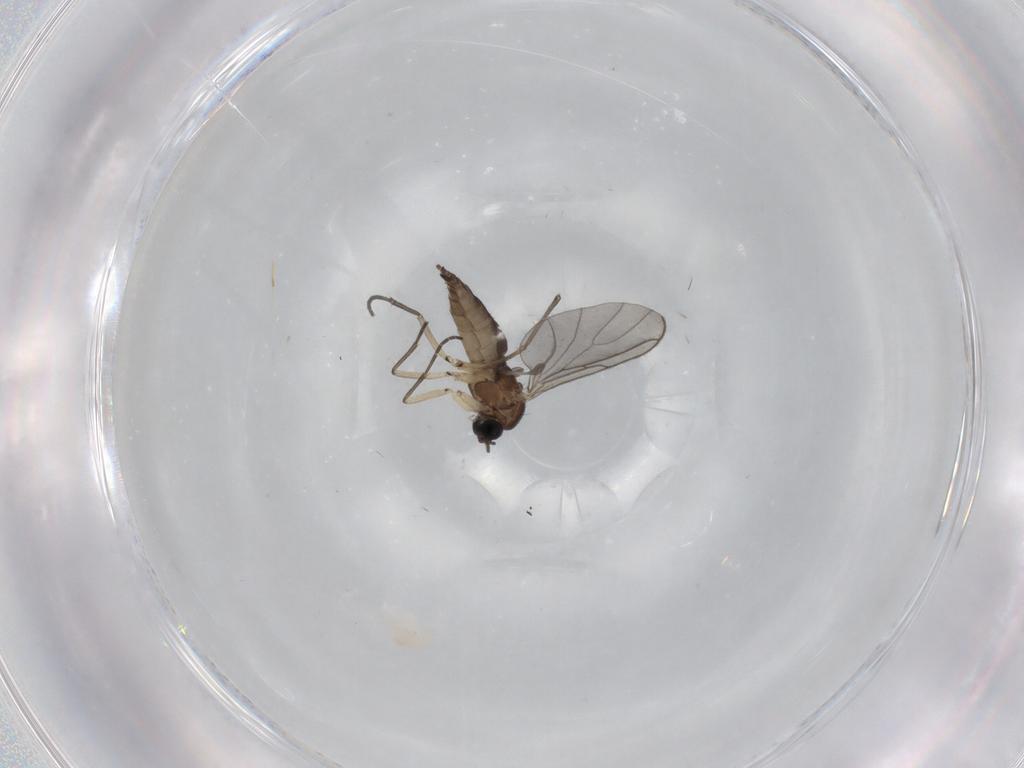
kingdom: Animalia
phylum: Arthropoda
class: Insecta
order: Diptera
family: Sciaridae
